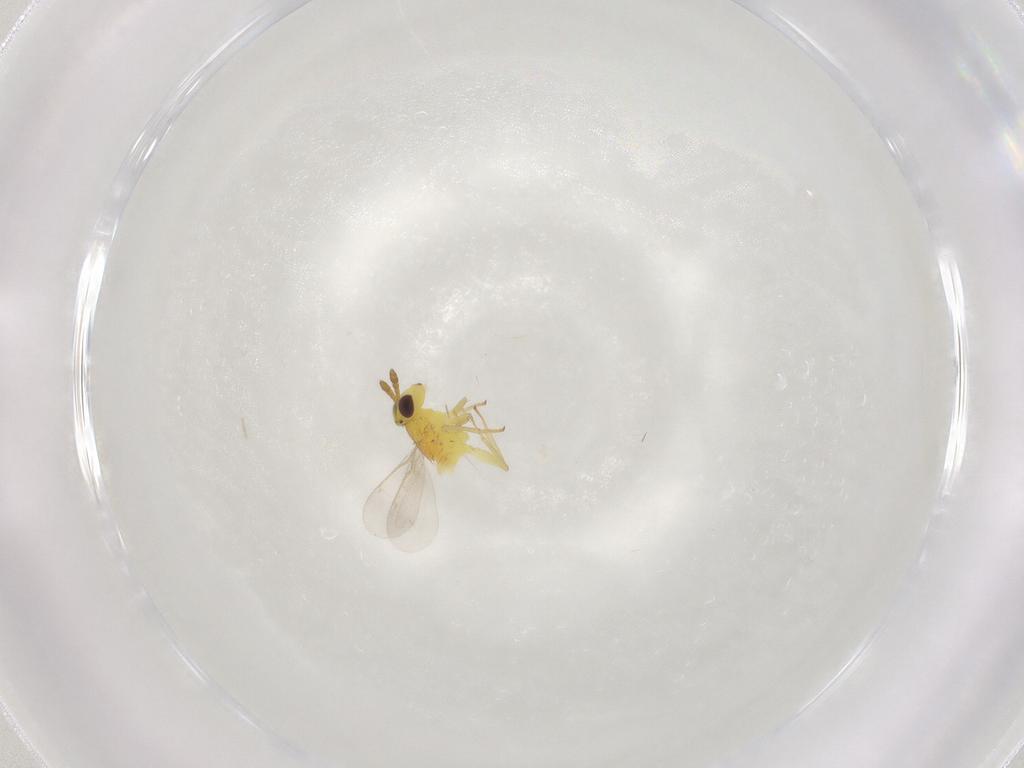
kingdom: Animalia
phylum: Arthropoda
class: Insecta
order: Hymenoptera
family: Aphelinidae
